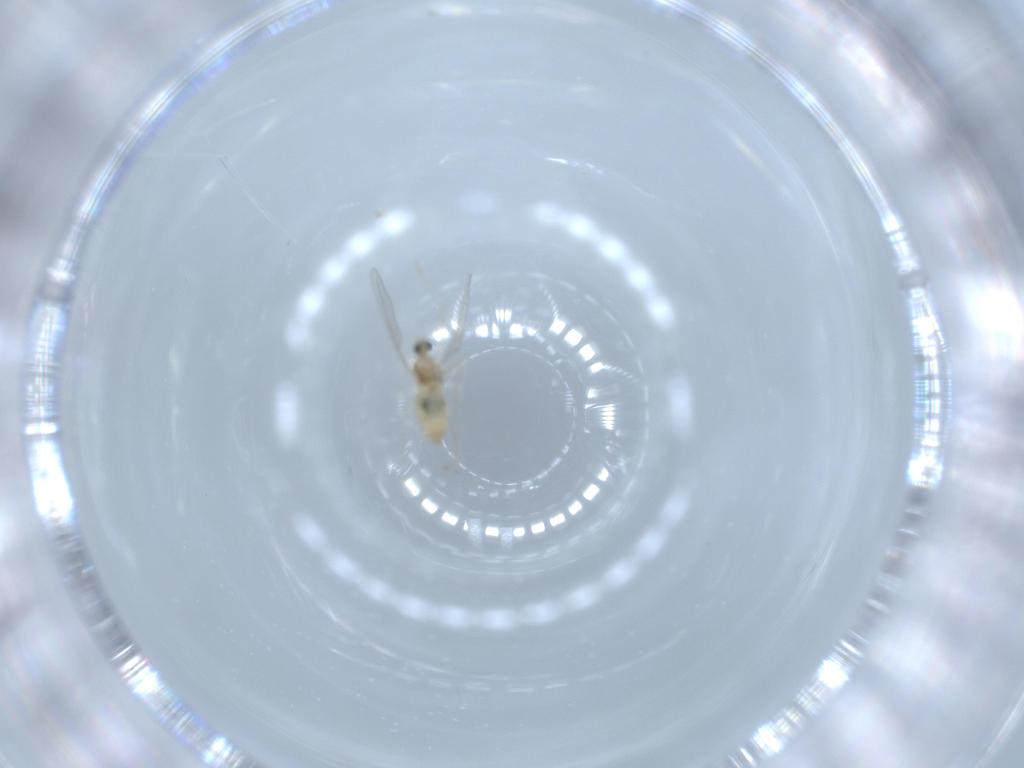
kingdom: Animalia
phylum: Arthropoda
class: Insecta
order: Diptera
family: Cecidomyiidae
